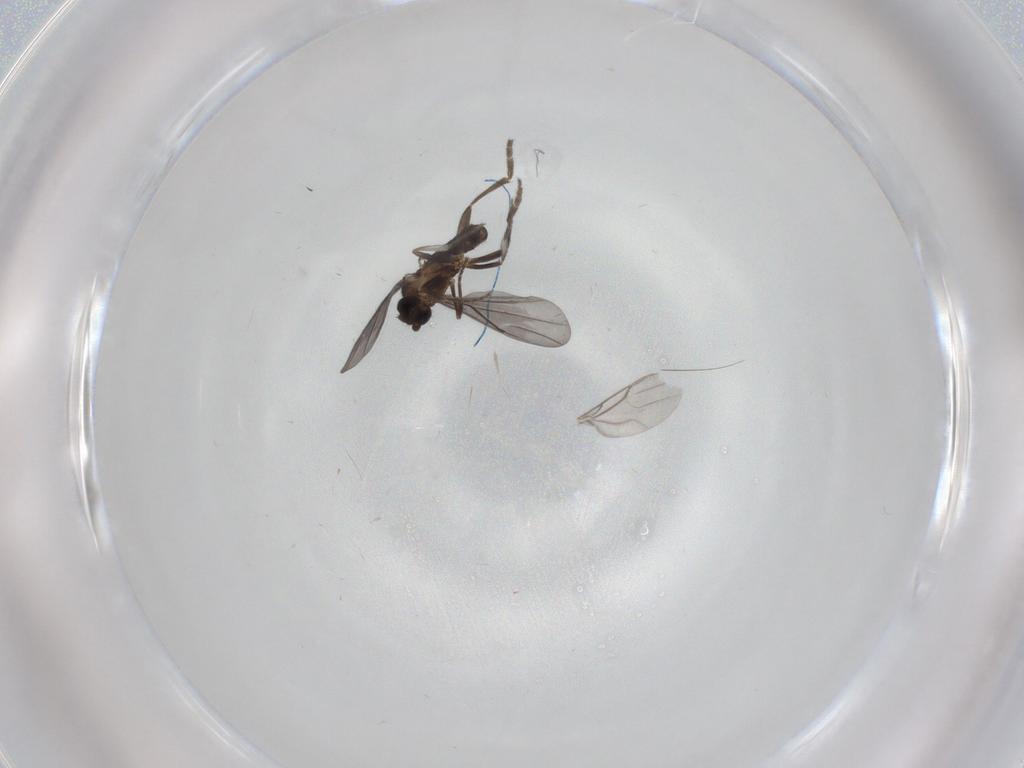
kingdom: Animalia
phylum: Arthropoda
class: Insecta
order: Diptera
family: Phoridae
